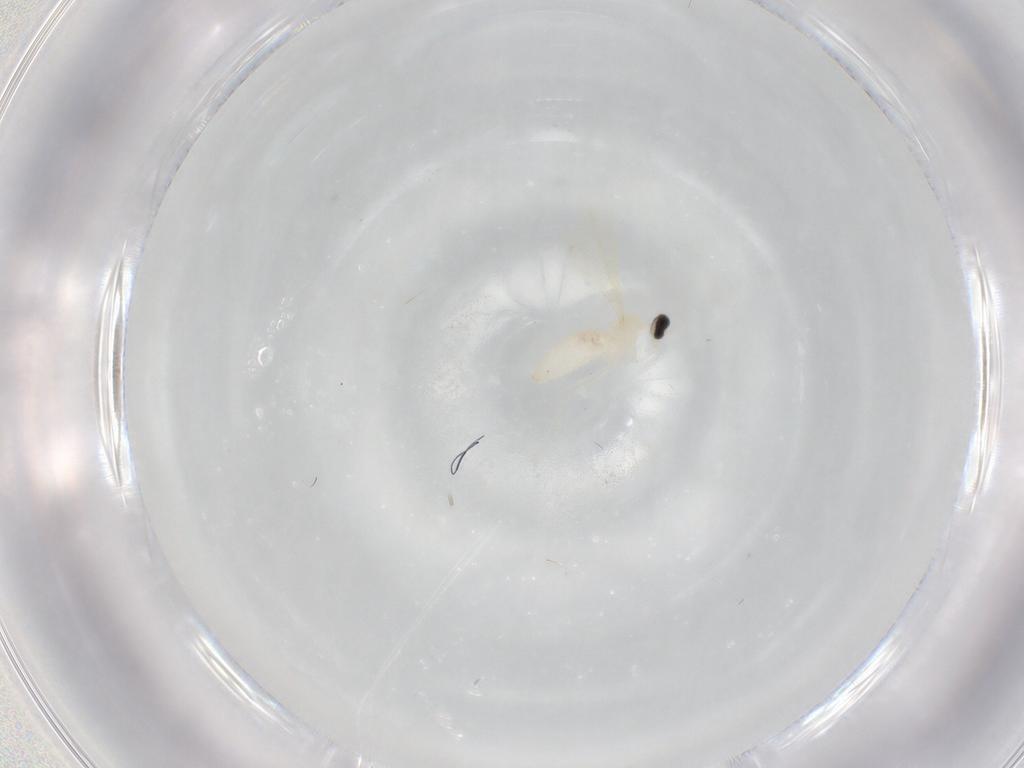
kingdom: Animalia
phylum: Arthropoda
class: Insecta
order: Diptera
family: Cecidomyiidae
